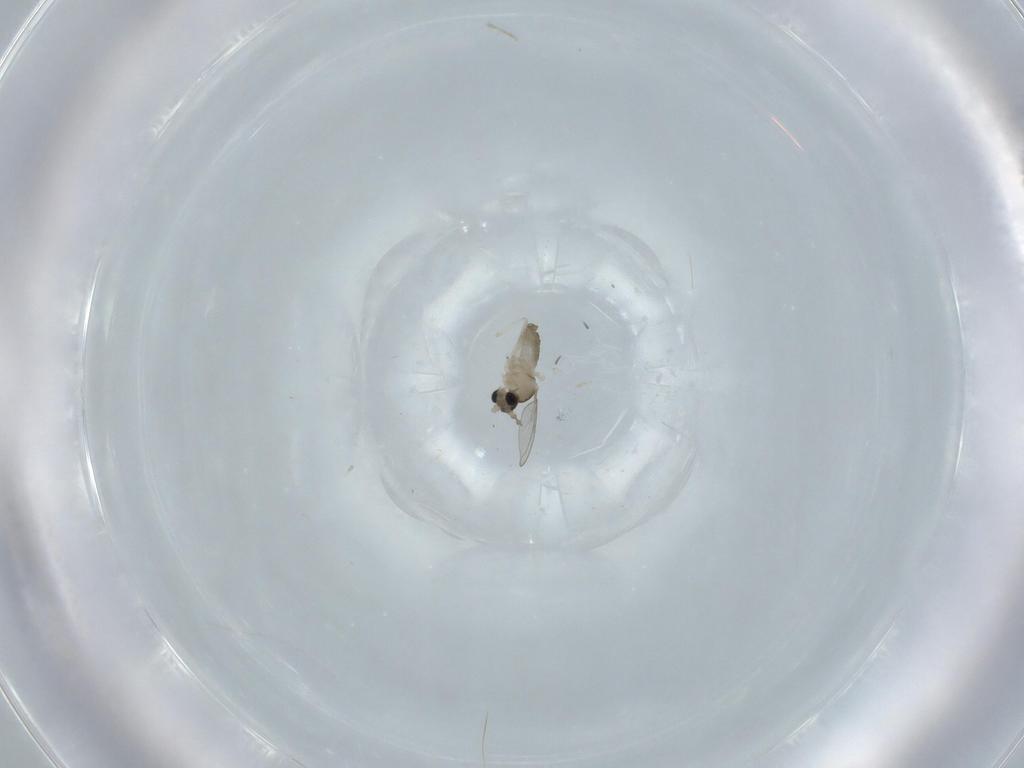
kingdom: Animalia
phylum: Arthropoda
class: Insecta
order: Diptera
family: Cecidomyiidae
